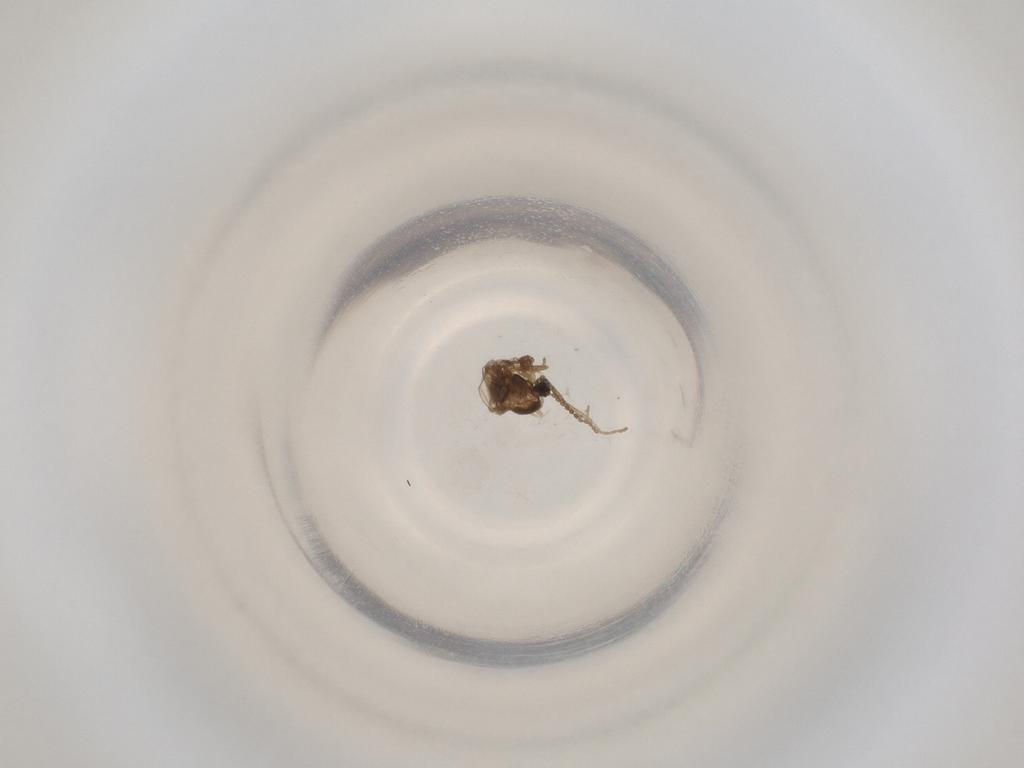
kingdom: Animalia
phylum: Arthropoda
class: Insecta
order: Diptera
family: Cecidomyiidae
